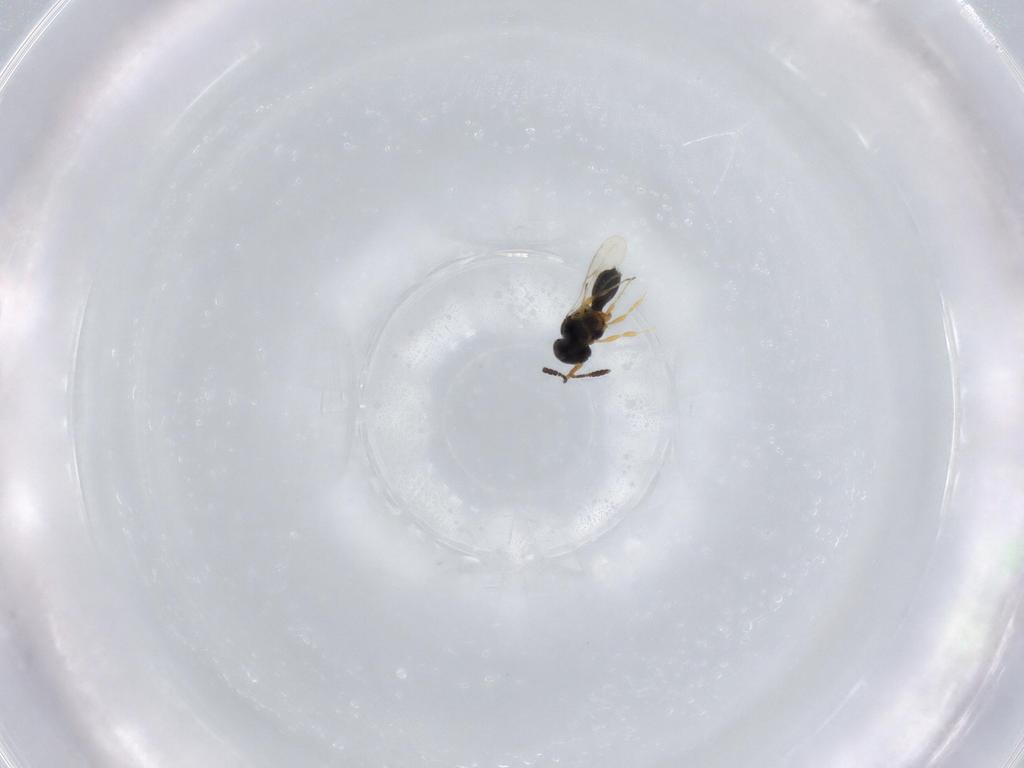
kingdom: Animalia
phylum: Arthropoda
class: Insecta
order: Hymenoptera
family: Scelionidae
